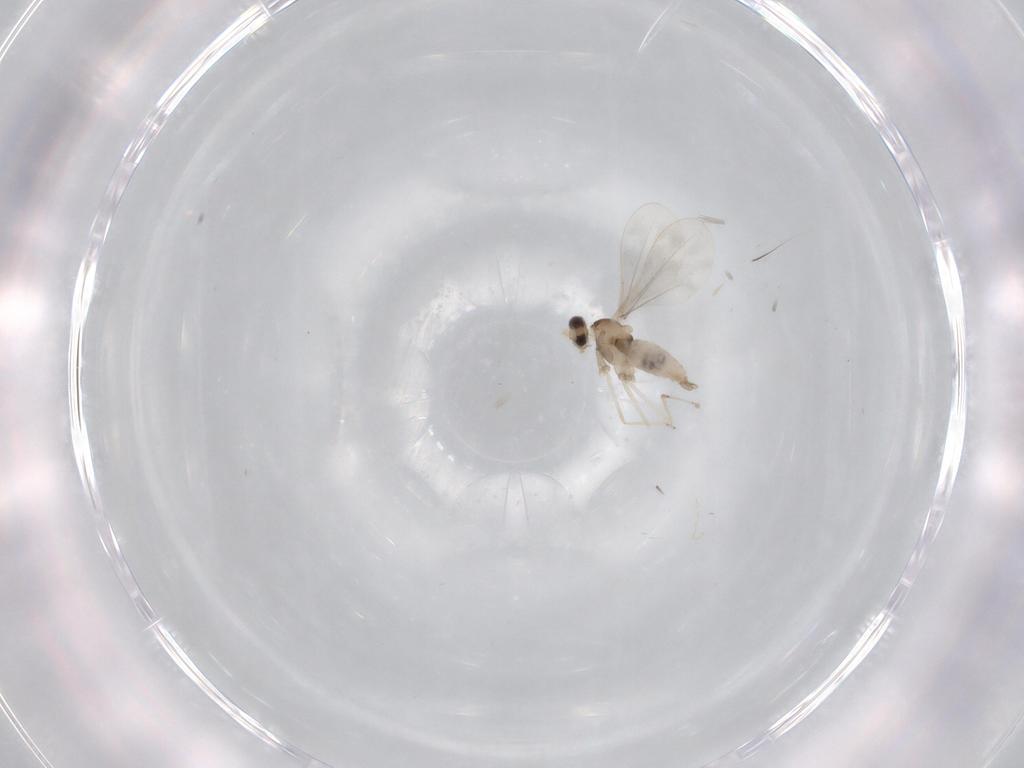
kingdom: Animalia
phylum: Arthropoda
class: Insecta
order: Diptera
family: Cecidomyiidae
